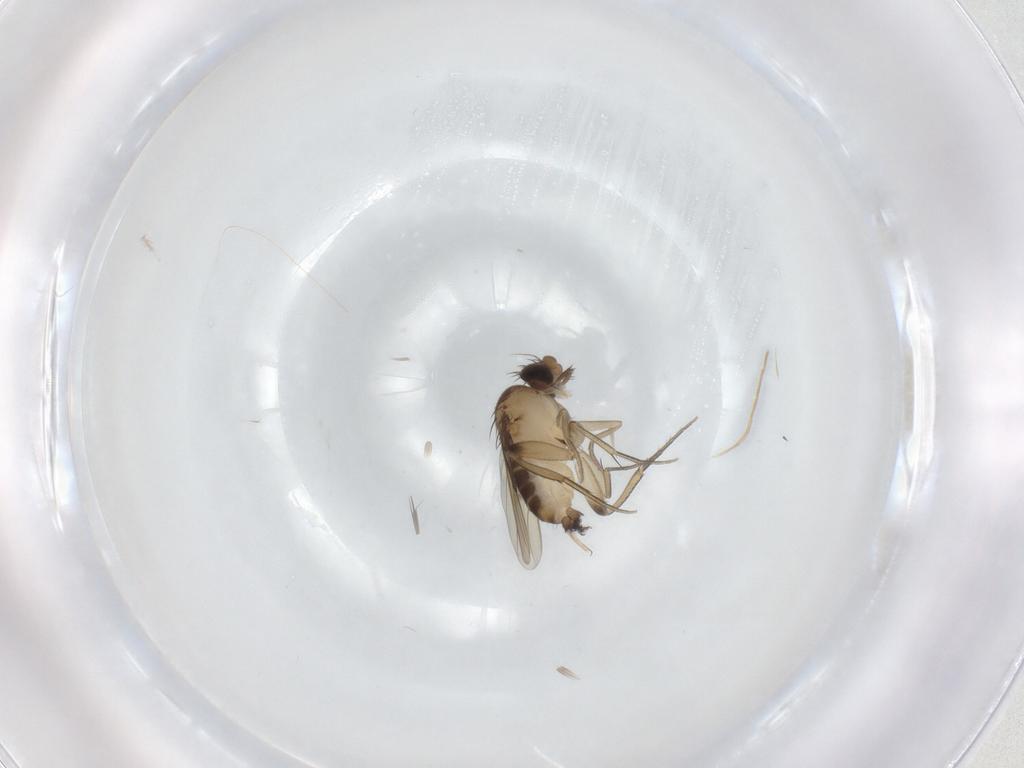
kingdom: Animalia
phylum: Arthropoda
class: Insecta
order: Diptera
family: Phoridae
